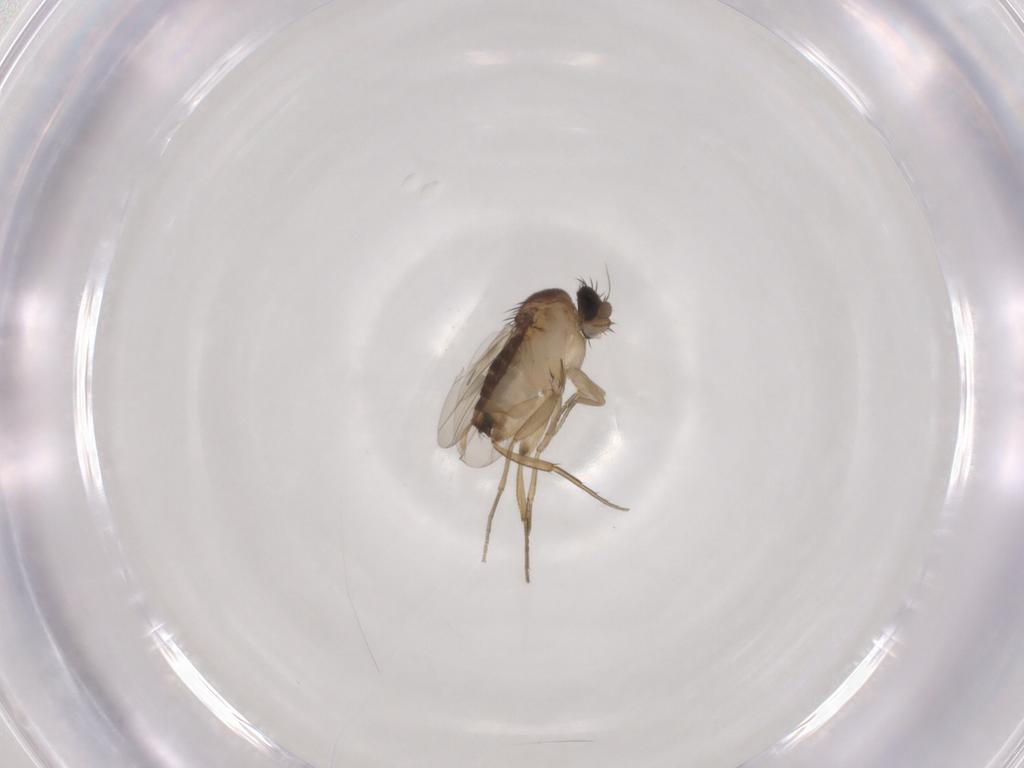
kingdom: Animalia
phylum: Arthropoda
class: Insecta
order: Diptera
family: Phoridae
